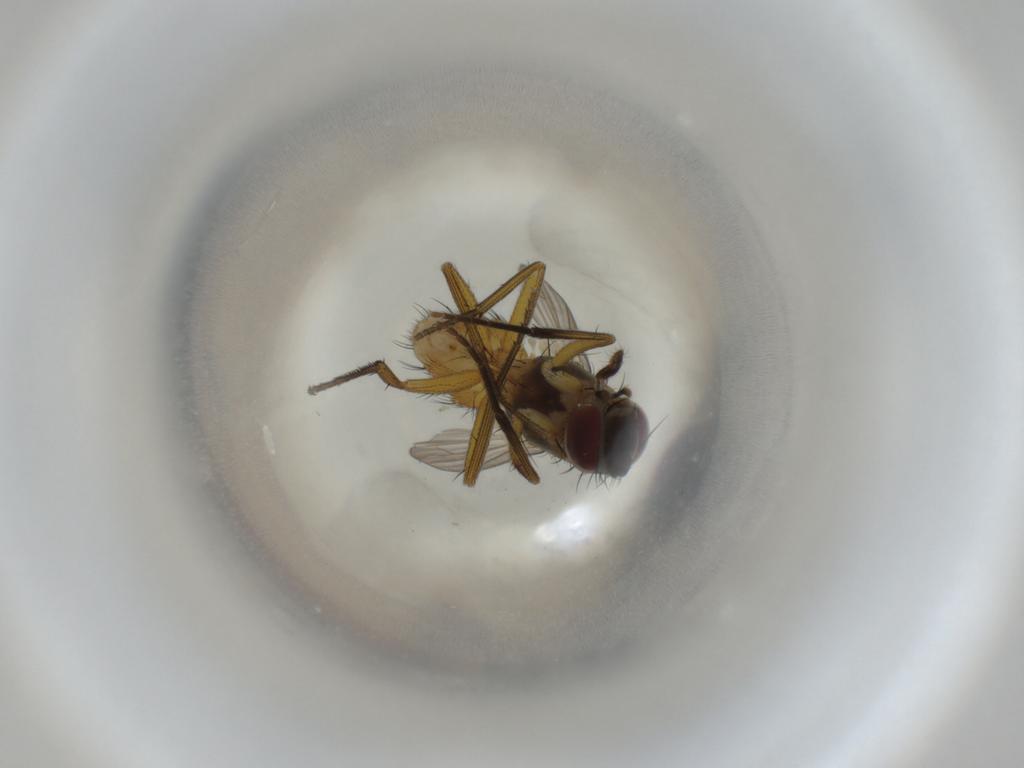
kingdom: Animalia
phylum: Arthropoda
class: Insecta
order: Diptera
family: Muscidae
